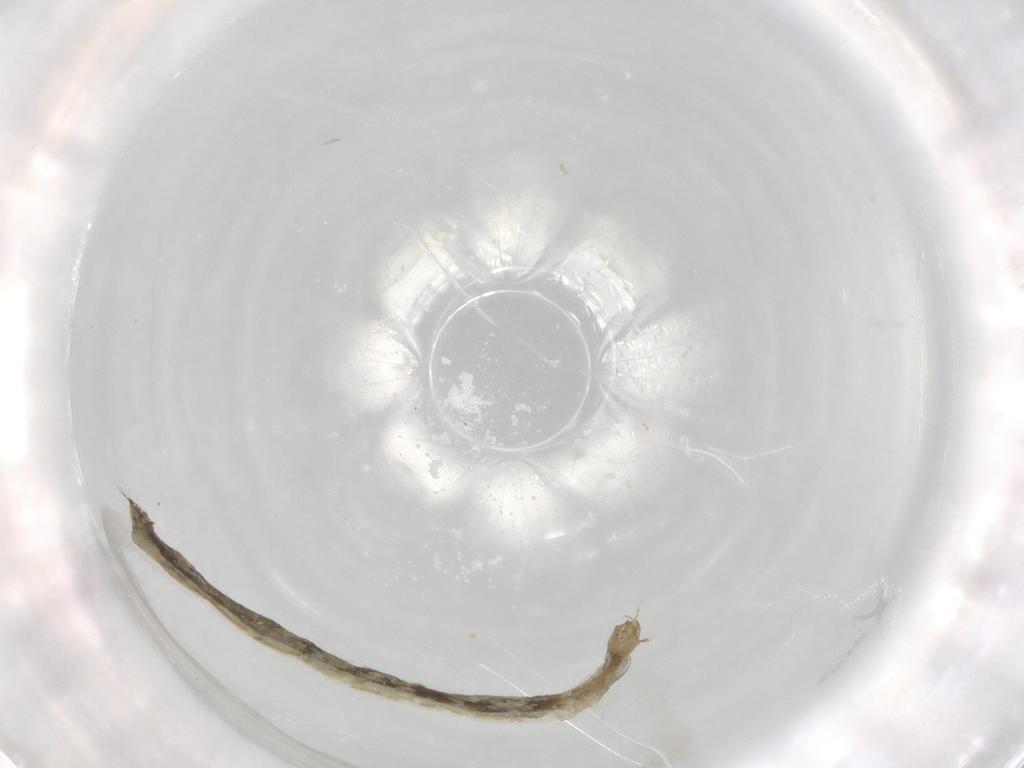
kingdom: Animalia
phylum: Arthropoda
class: Insecta
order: Diptera
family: Chironomidae
